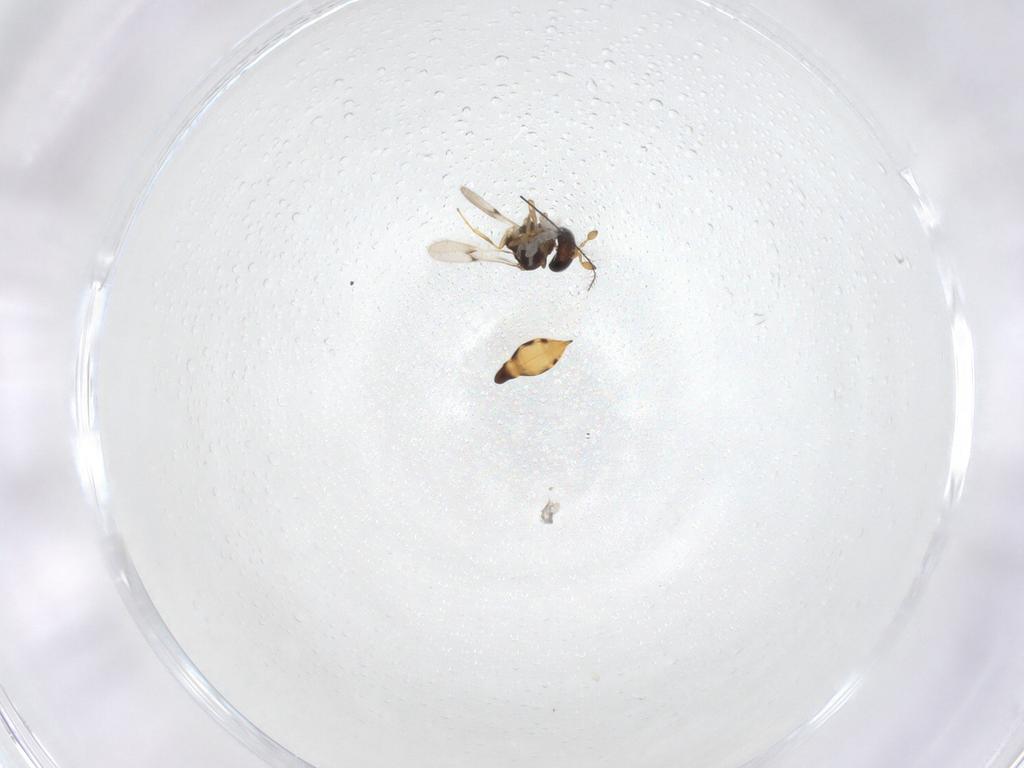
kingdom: Animalia
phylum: Arthropoda
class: Insecta
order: Hymenoptera
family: Scelionidae
